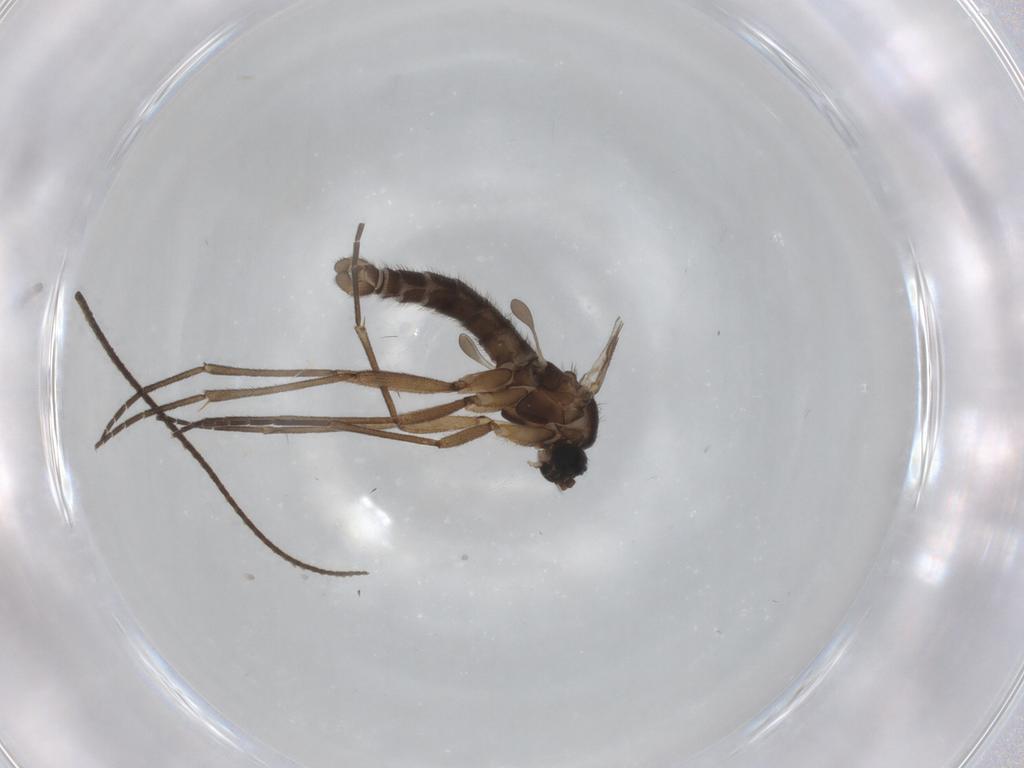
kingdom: Animalia
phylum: Arthropoda
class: Insecta
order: Diptera
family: Sciaridae
